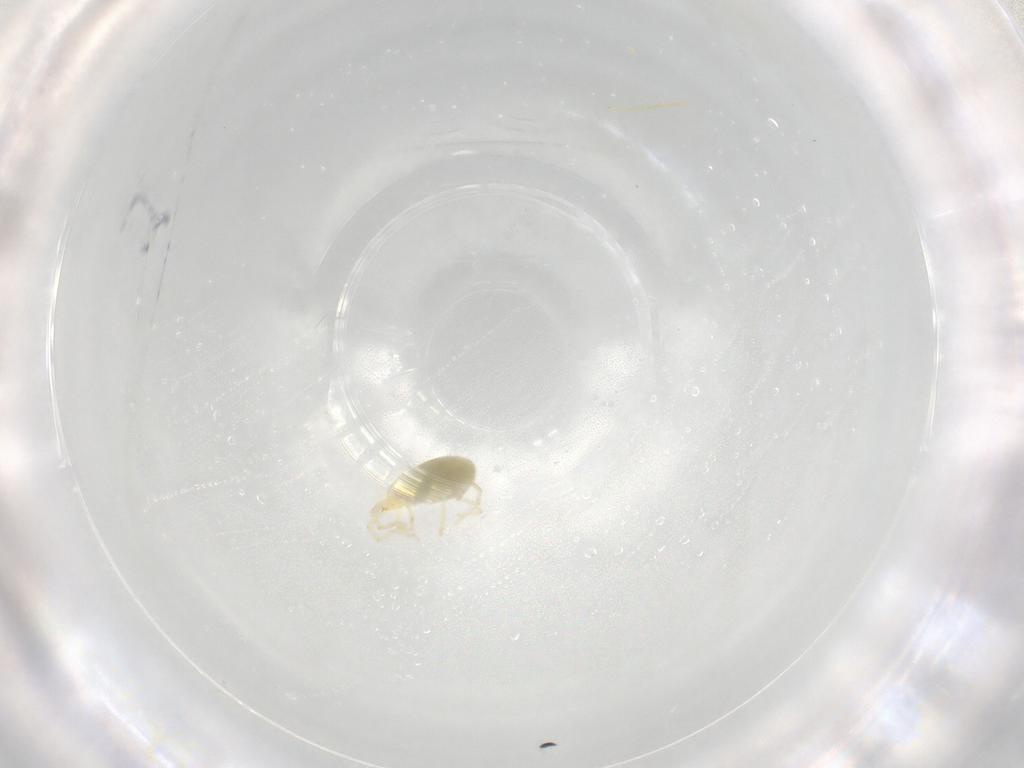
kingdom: Animalia
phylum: Arthropoda
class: Arachnida
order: Trombidiformes
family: Erythraeidae
